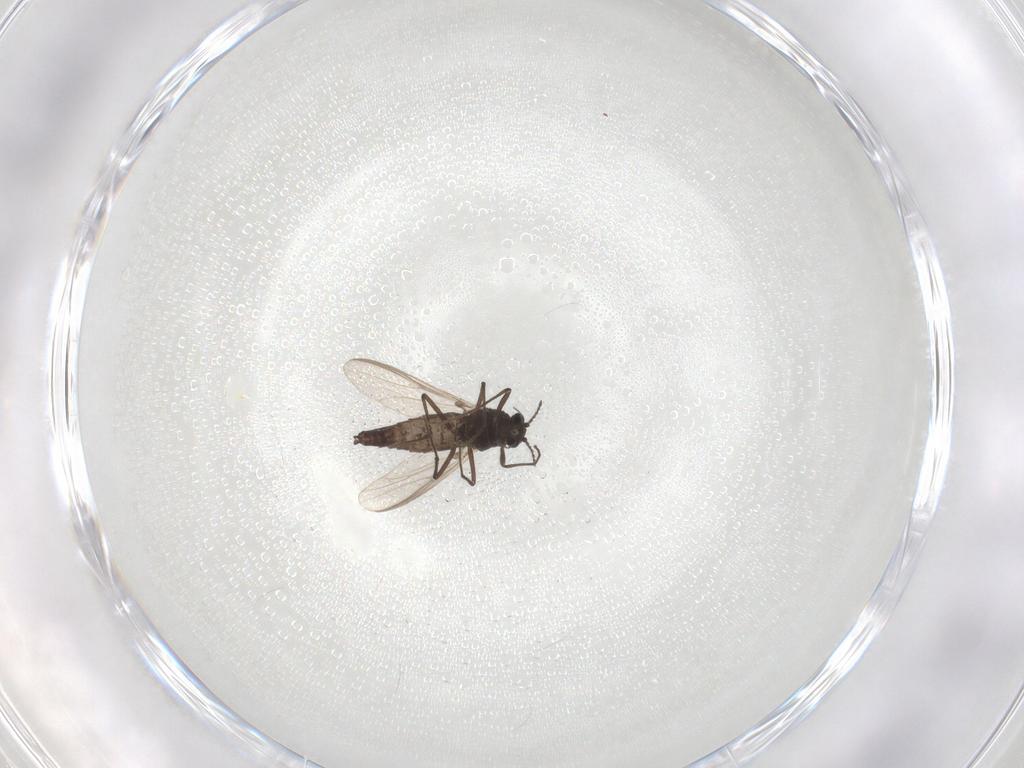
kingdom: Animalia
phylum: Arthropoda
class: Insecta
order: Diptera
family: Chironomidae
